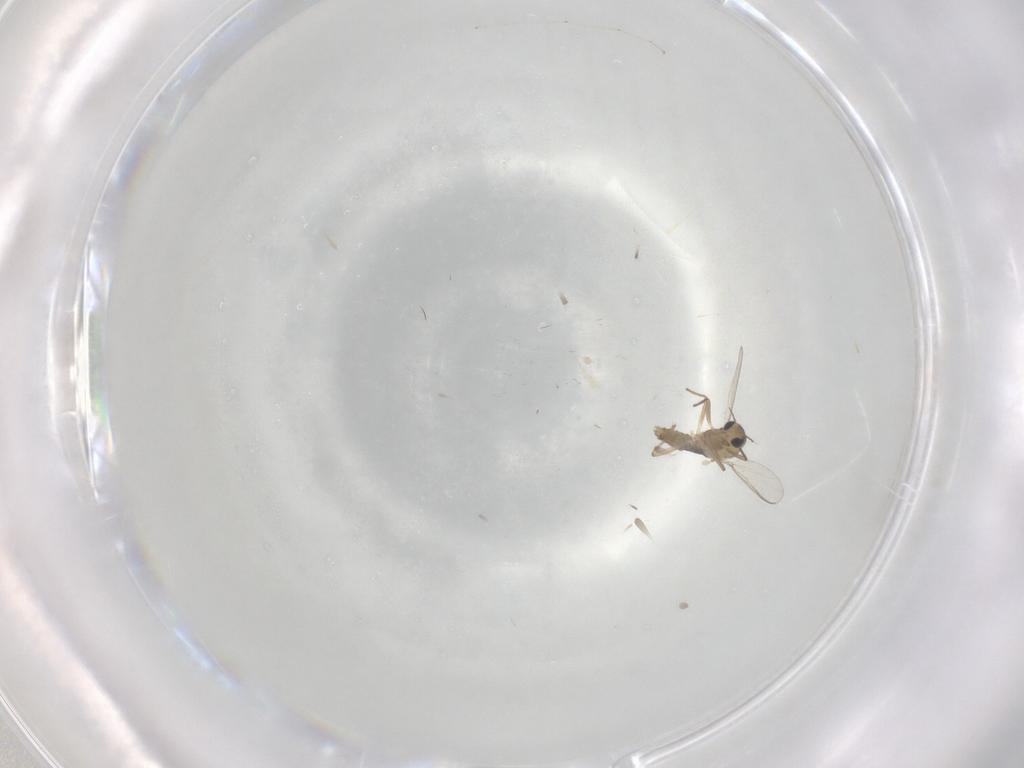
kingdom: Animalia
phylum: Arthropoda
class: Insecta
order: Diptera
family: Chironomidae
